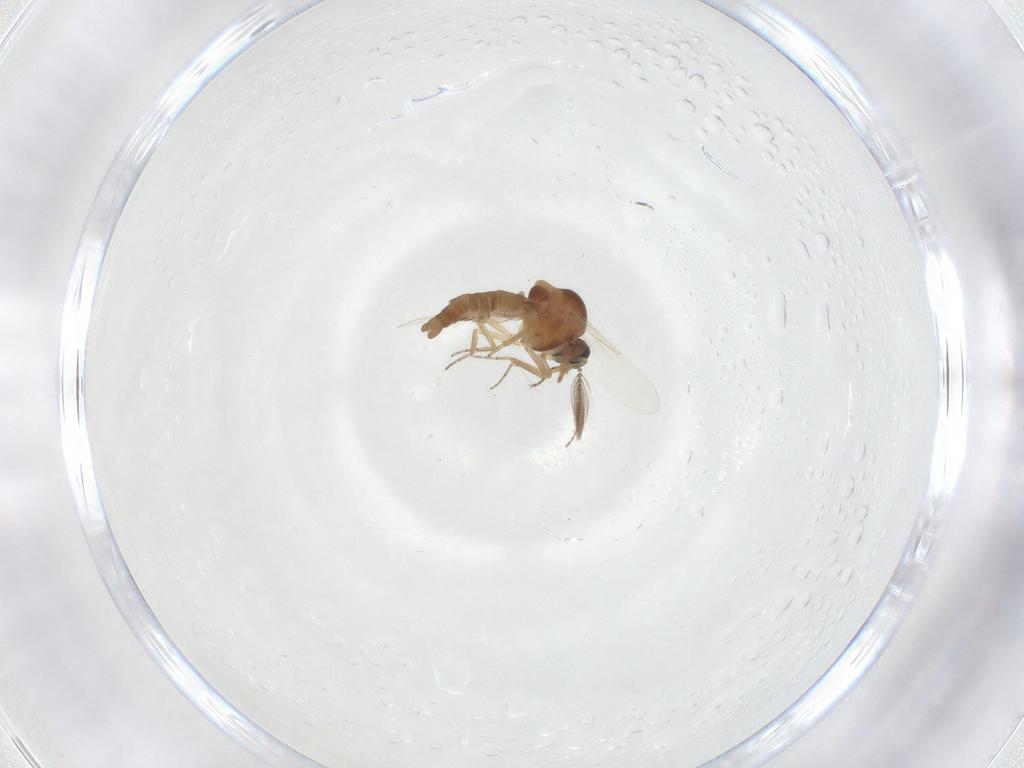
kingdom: Animalia
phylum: Arthropoda
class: Insecta
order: Diptera
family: Ceratopogonidae
